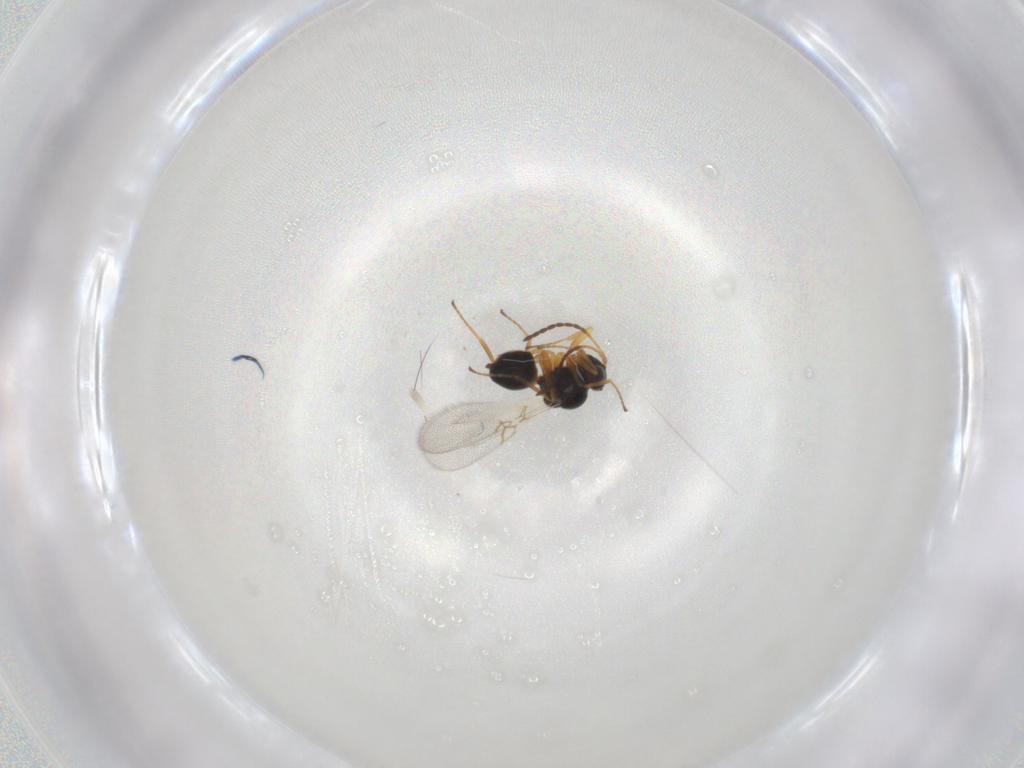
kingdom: Animalia
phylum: Arthropoda
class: Insecta
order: Hymenoptera
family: Figitidae
